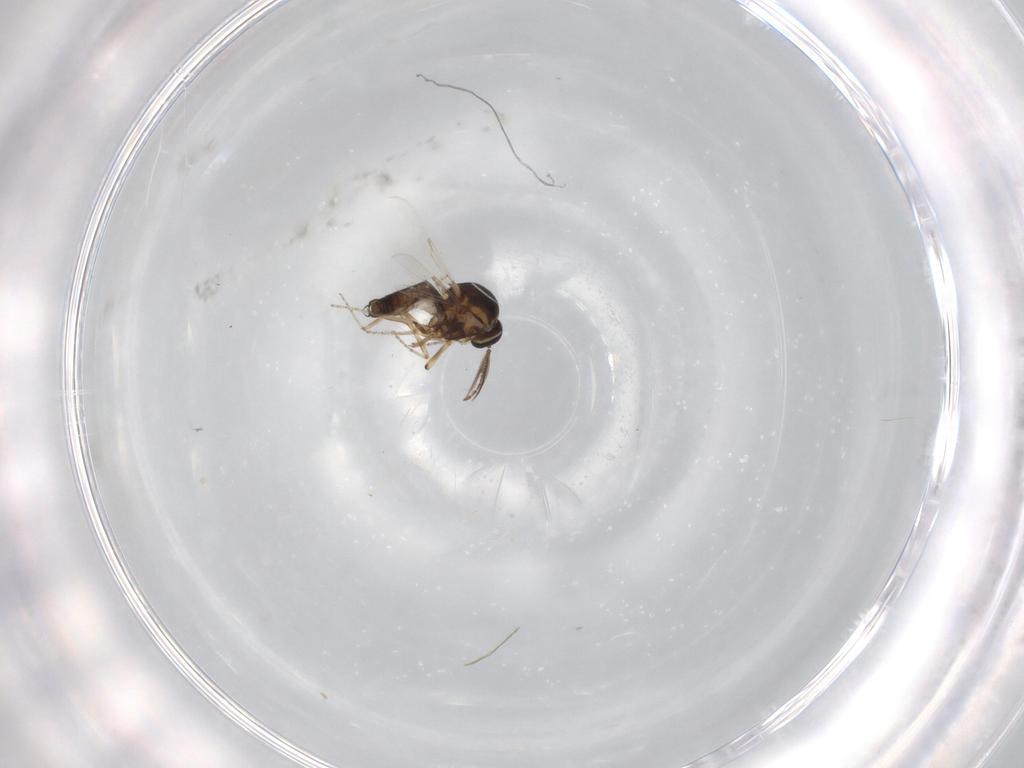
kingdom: Animalia
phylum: Arthropoda
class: Insecta
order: Diptera
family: Ceratopogonidae
